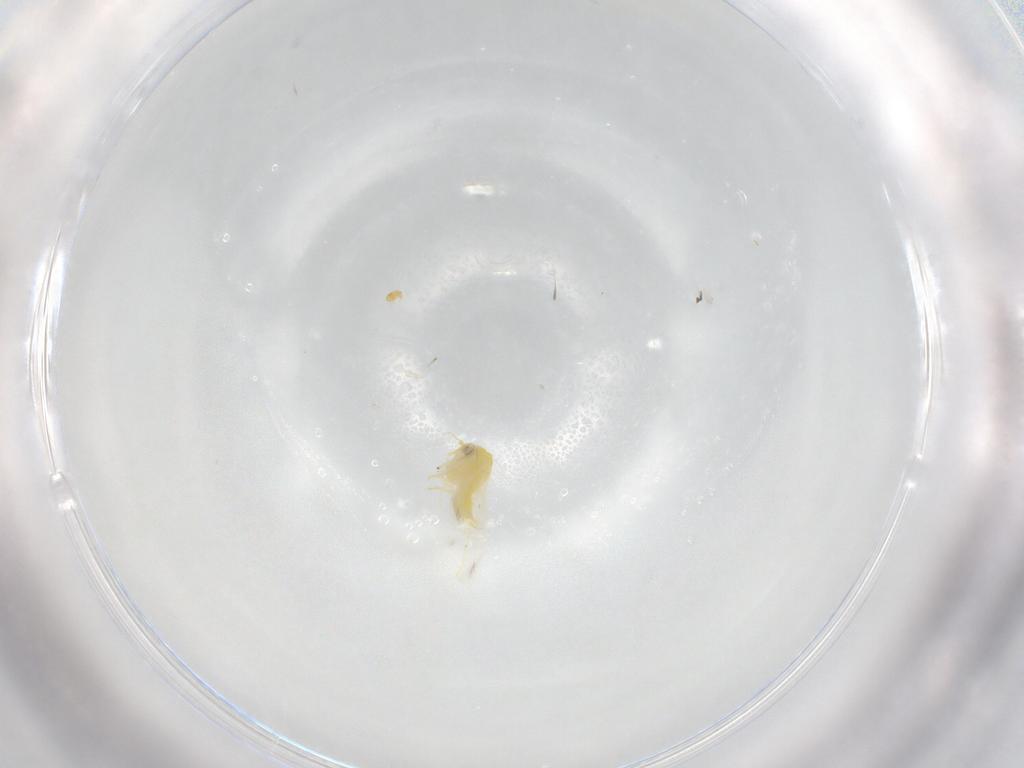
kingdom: Animalia
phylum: Arthropoda
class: Insecta
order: Hemiptera
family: Aleyrodidae
